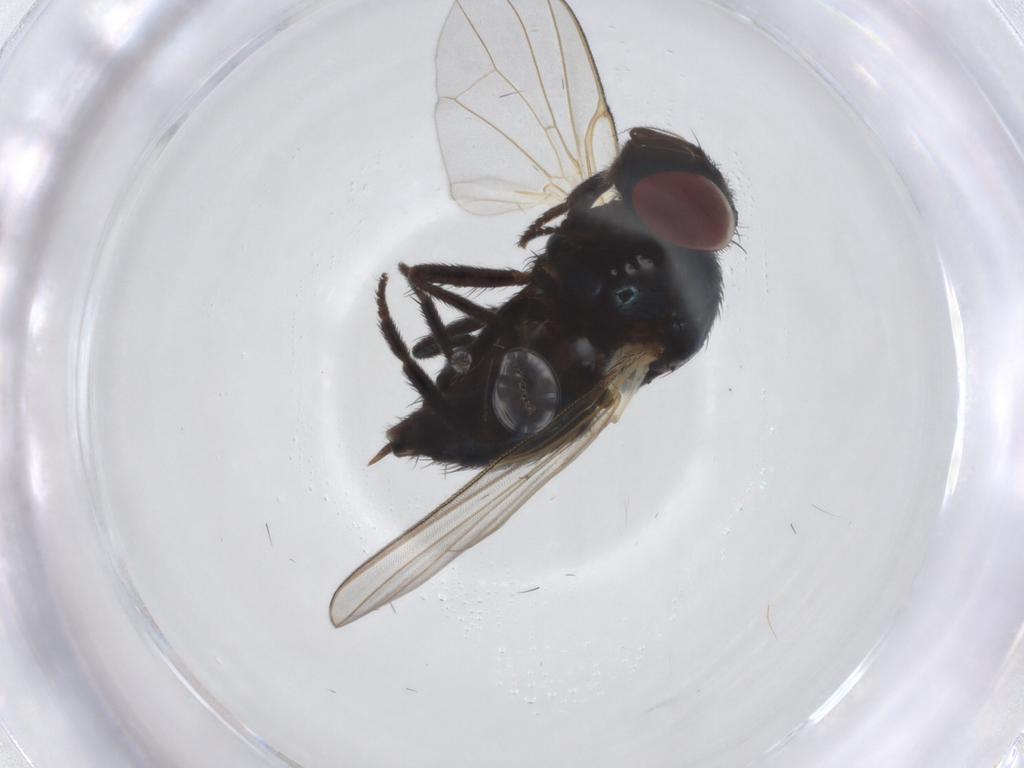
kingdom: Animalia
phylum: Arthropoda
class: Insecta
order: Diptera
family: Lonchaeidae
